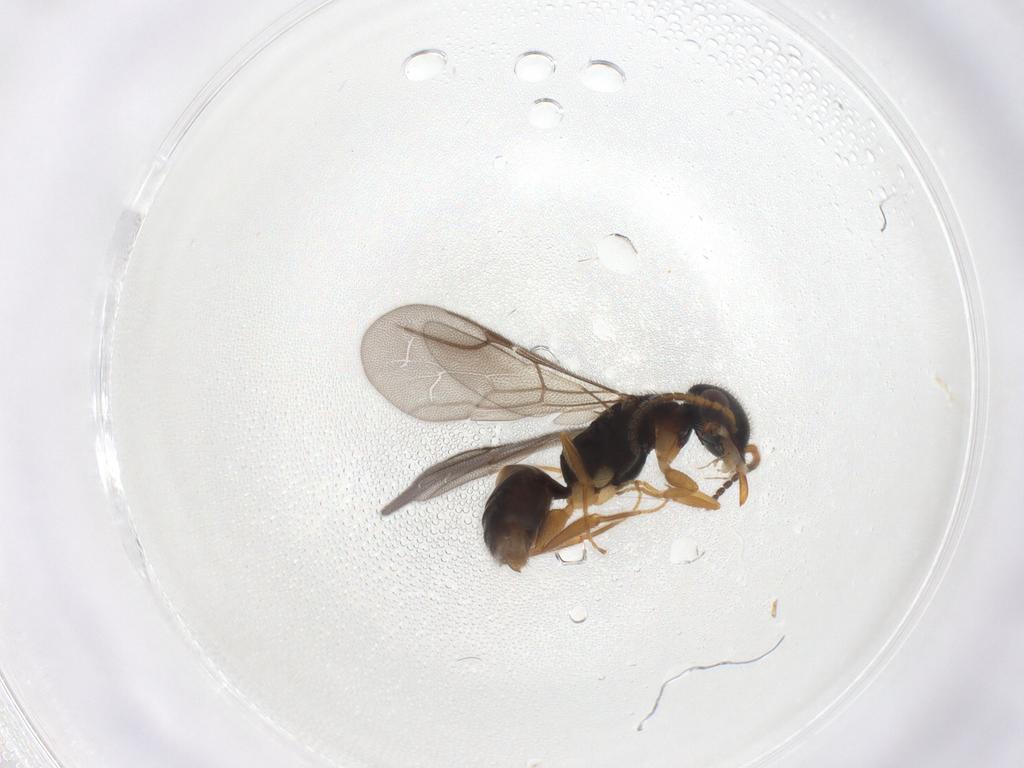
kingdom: Animalia
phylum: Arthropoda
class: Insecta
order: Hymenoptera
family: Bethylidae
